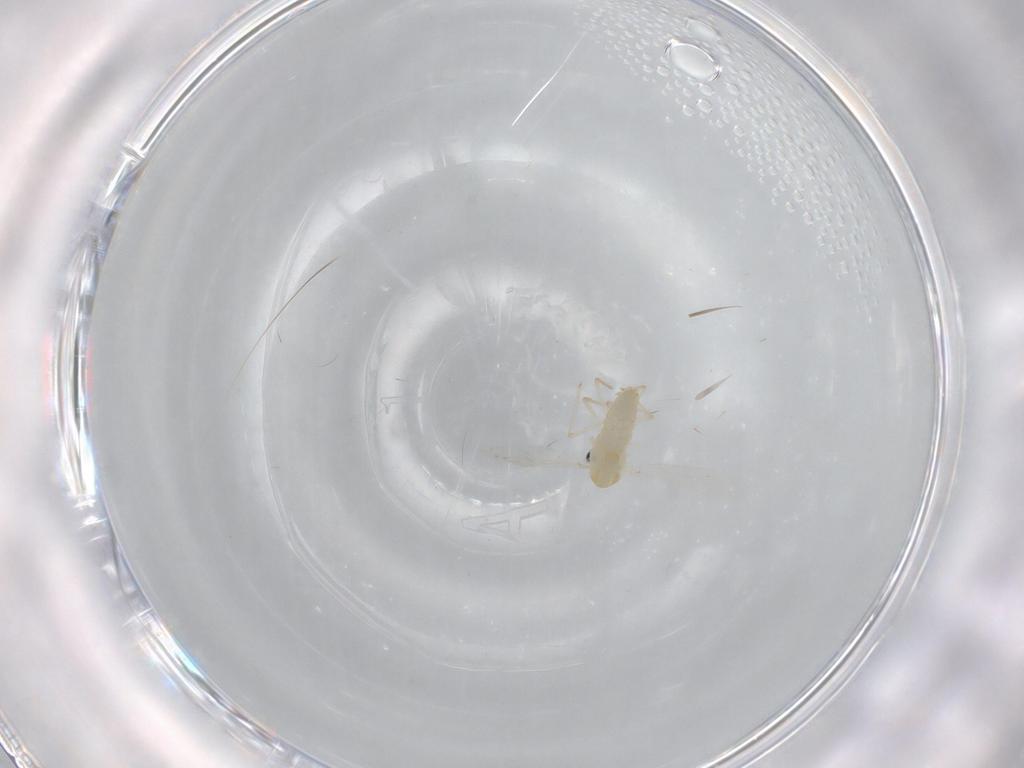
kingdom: Animalia
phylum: Arthropoda
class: Insecta
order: Diptera
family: Chironomidae
